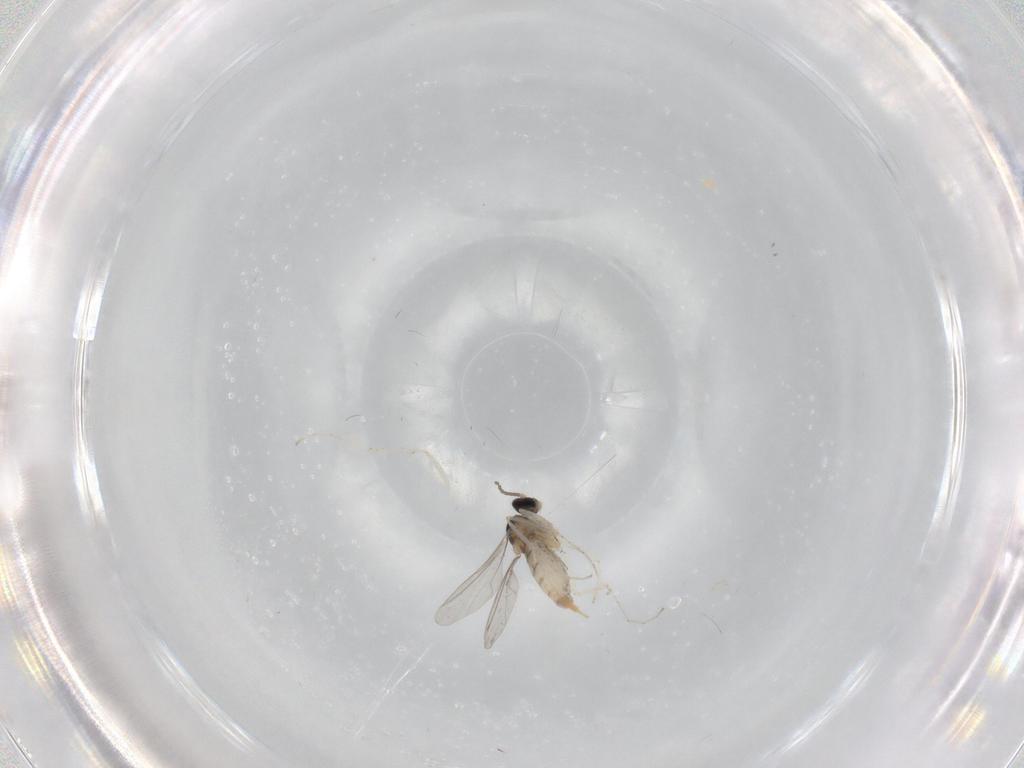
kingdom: Animalia
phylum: Arthropoda
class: Insecta
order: Diptera
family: Cecidomyiidae
